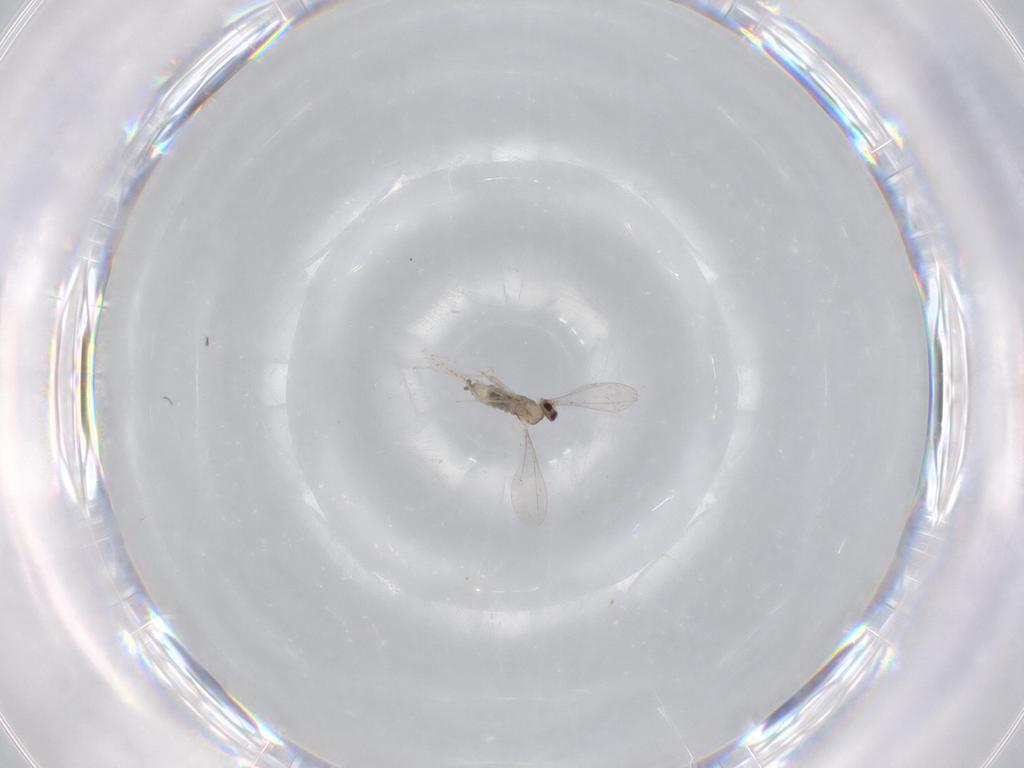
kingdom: Animalia
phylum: Arthropoda
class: Insecta
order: Diptera
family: Cecidomyiidae
